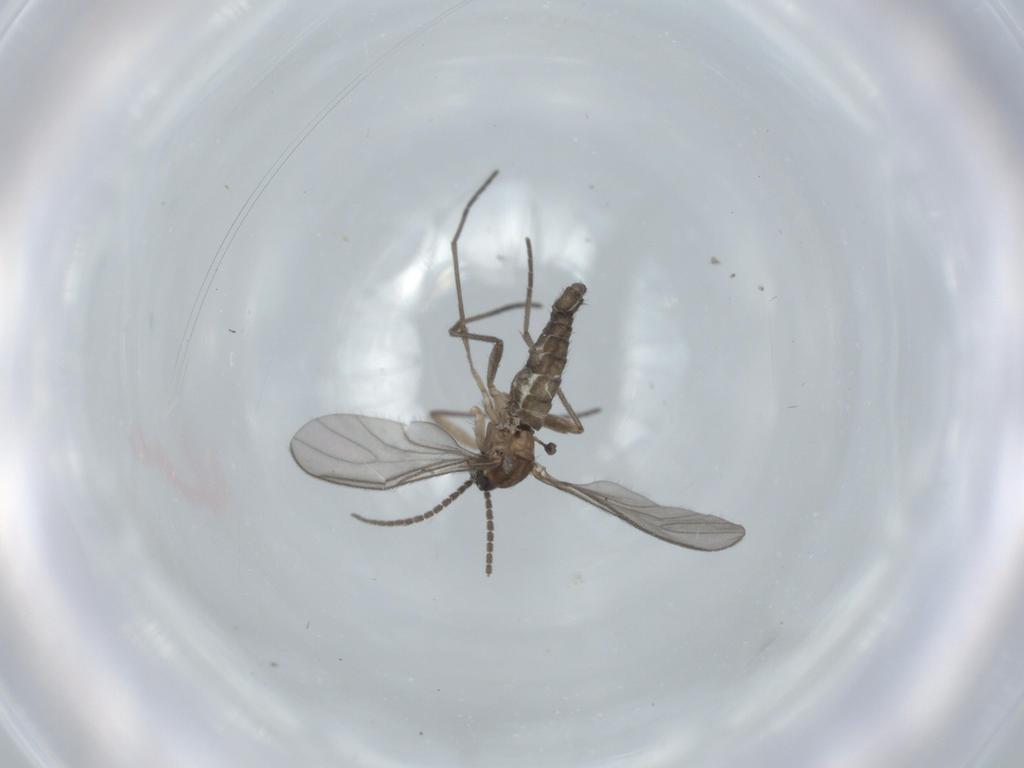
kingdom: Animalia
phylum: Arthropoda
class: Insecta
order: Diptera
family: Sciaridae
